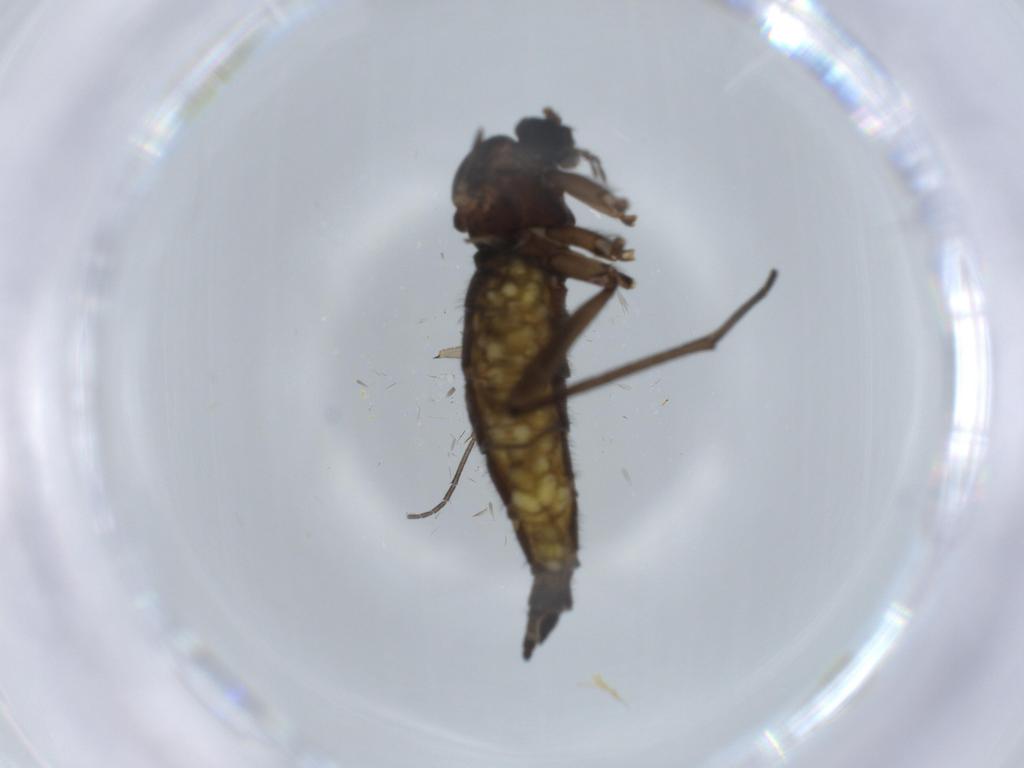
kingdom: Animalia
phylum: Arthropoda
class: Insecta
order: Diptera
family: Sciaridae
